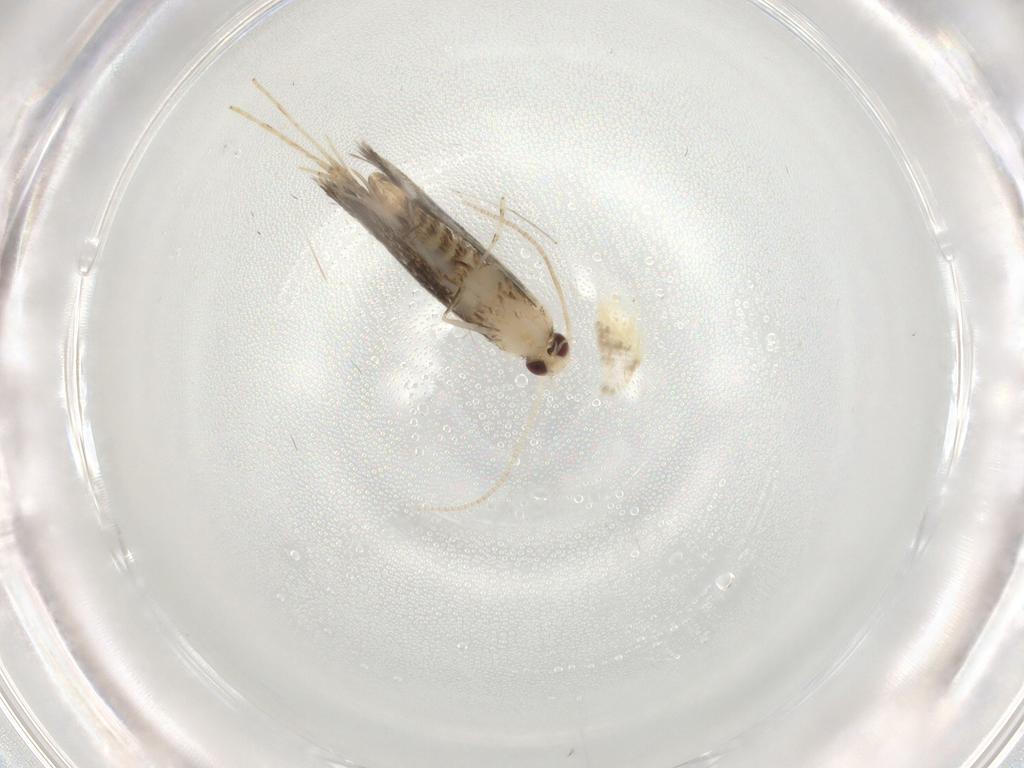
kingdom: Animalia
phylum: Arthropoda
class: Insecta
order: Lepidoptera
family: Gracillariidae
